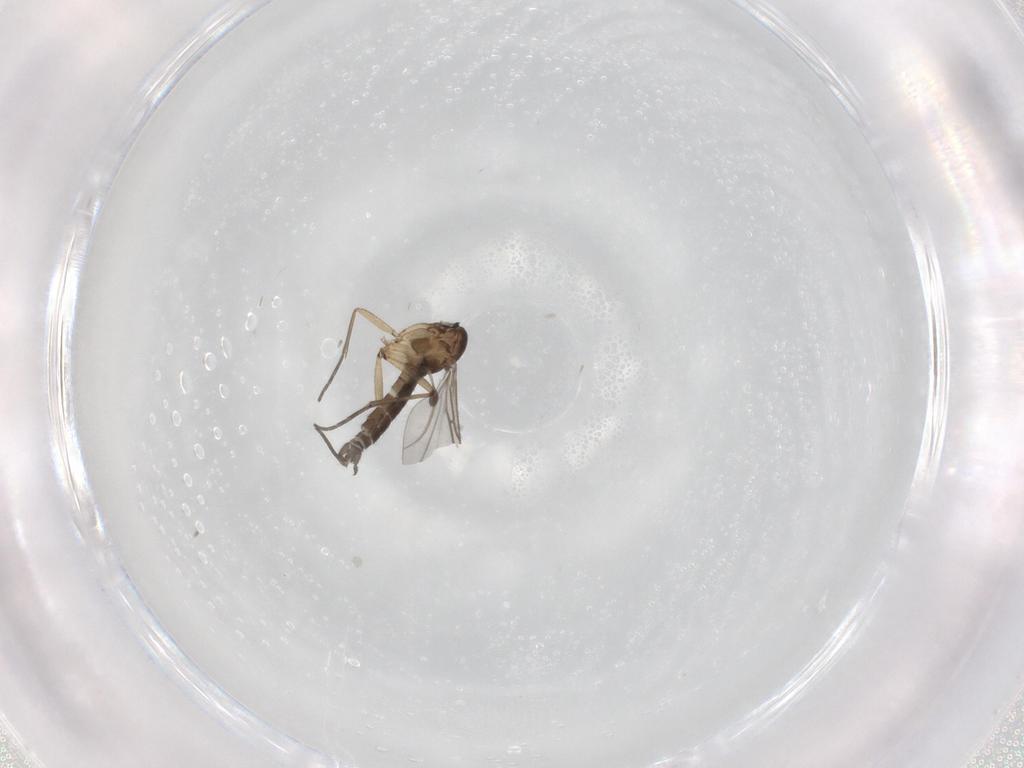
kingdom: Animalia
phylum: Arthropoda
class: Insecta
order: Diptera
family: Sciaridae
